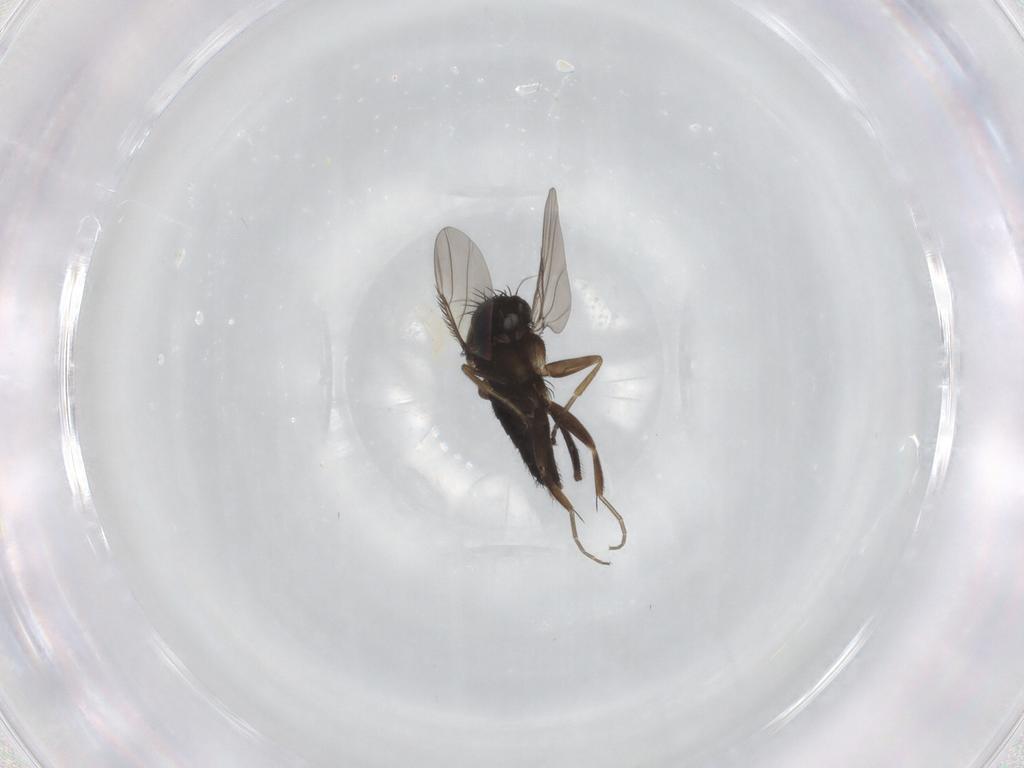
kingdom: Animalia
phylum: Arthropoda
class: Insecta
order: Diptera
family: Phoridae
